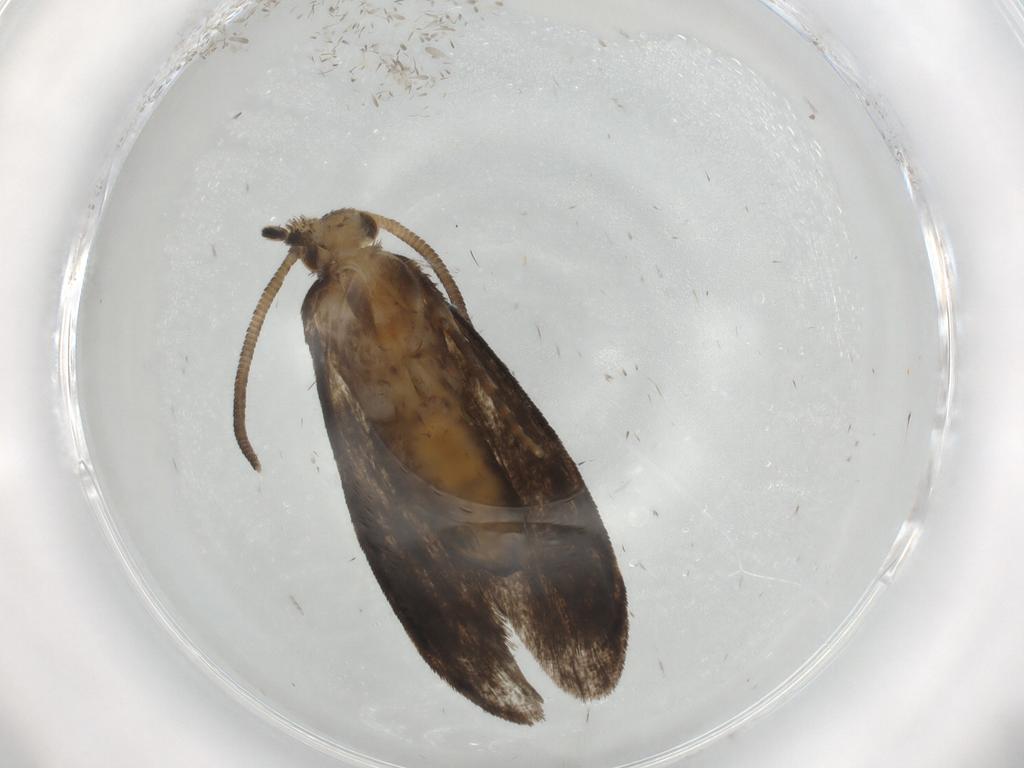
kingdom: Animalia
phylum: Arthropoda
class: Insecta
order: Lepidoptera
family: Dryadaulidae
